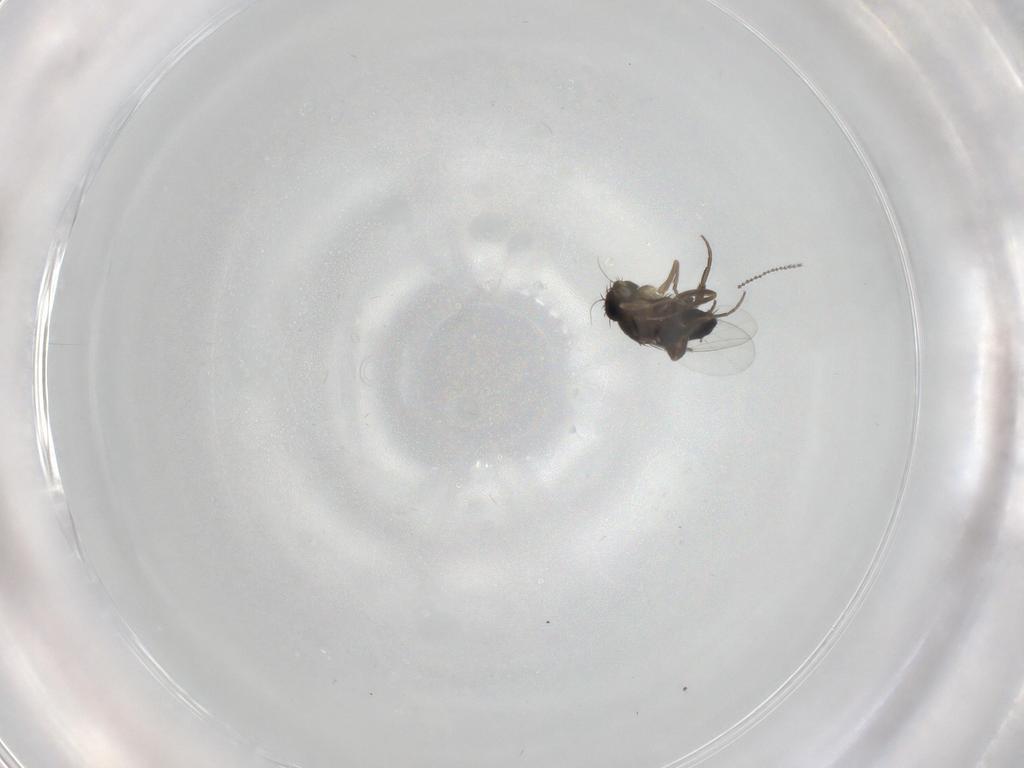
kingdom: Animalia
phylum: Arthropoda
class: Insecta
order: Diptera
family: Phoridae
